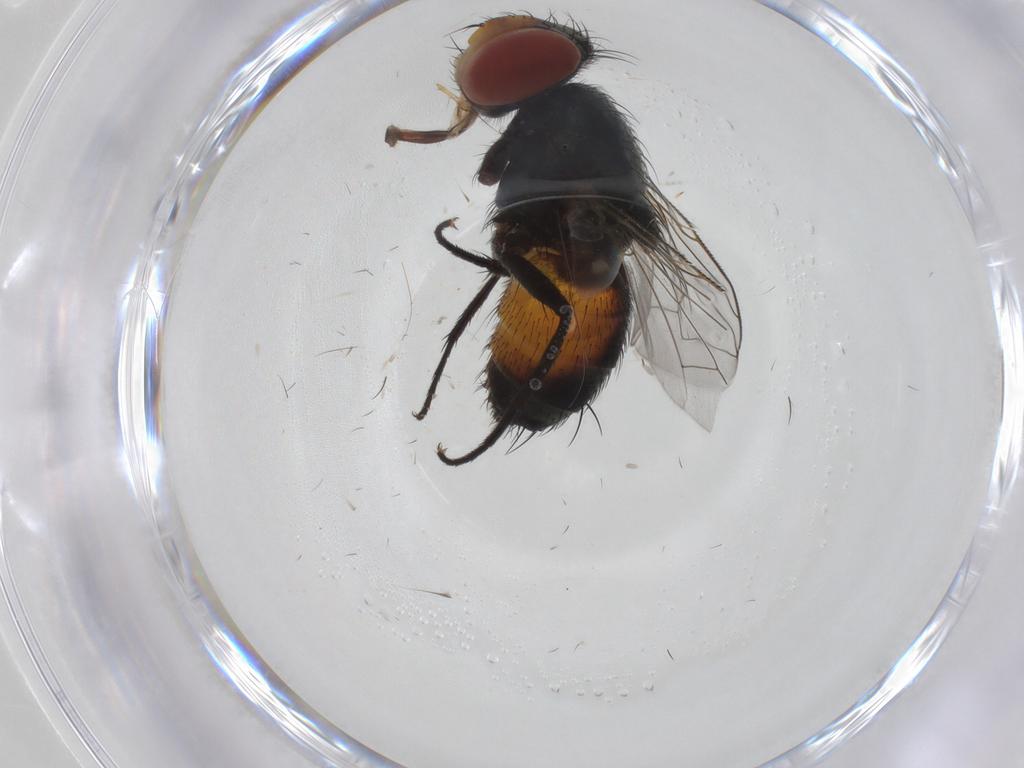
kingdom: Animalia
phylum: Arthropoda
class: Insecta
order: Diptera
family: Sarcophagidae
